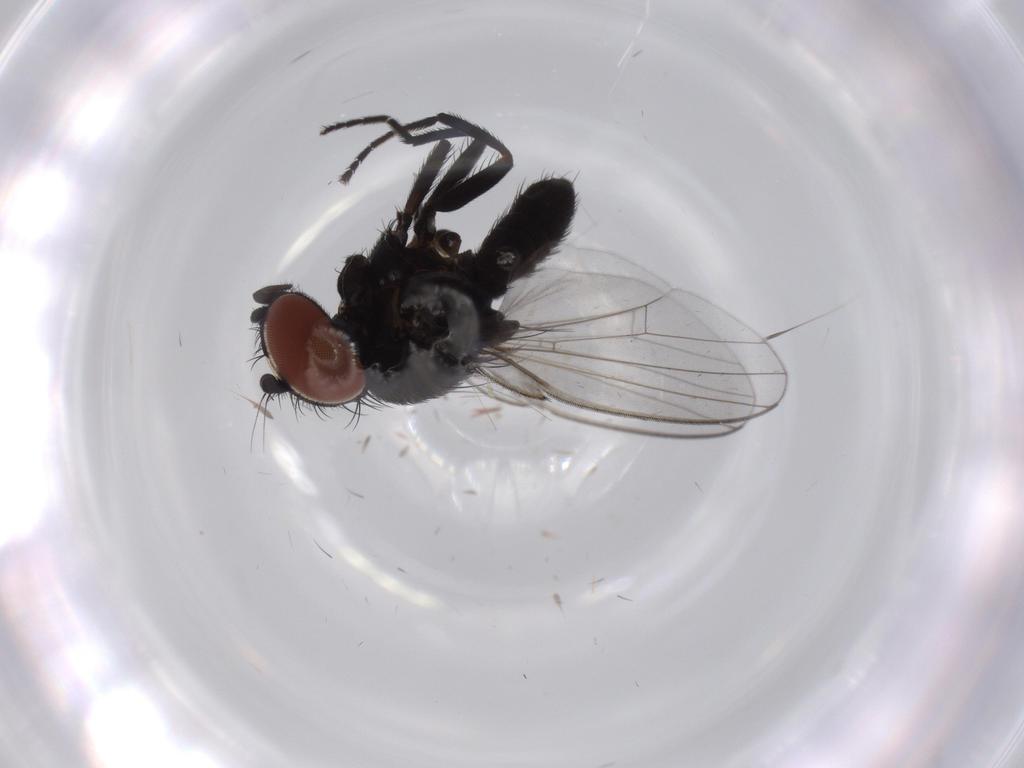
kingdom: Animalia
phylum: Arthropoda
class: Insecta
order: Diptera
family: Milichiidae
